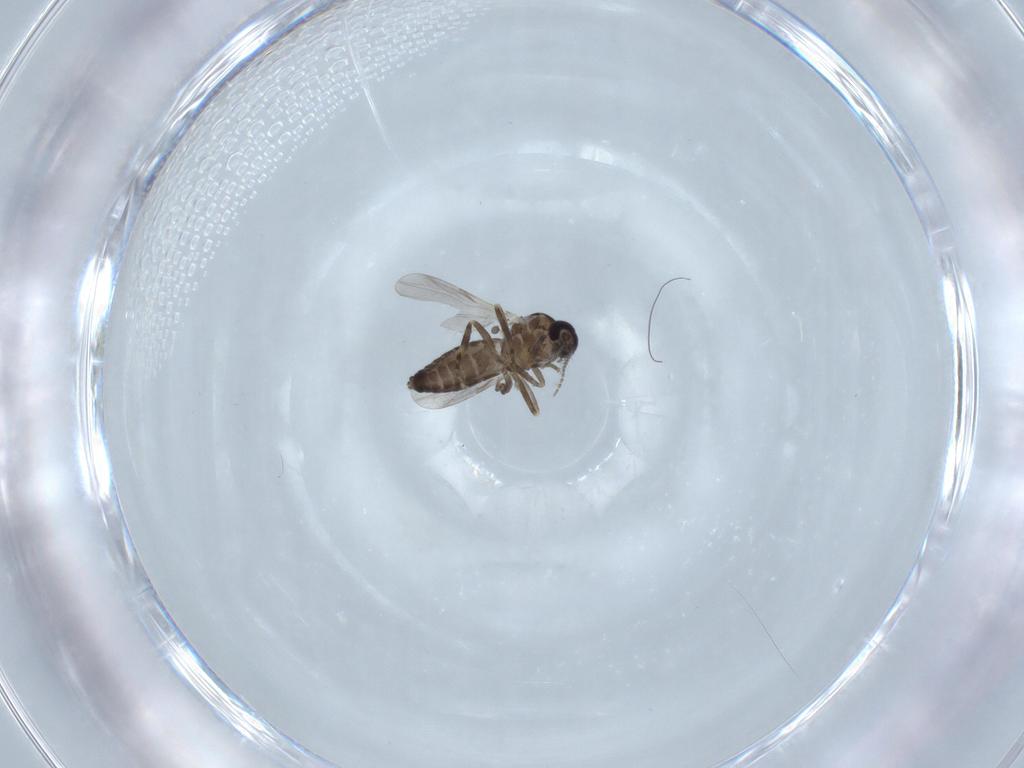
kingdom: Animalia
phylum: Arthropoda
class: Insecta
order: Diptera
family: Ceratopogonidae
